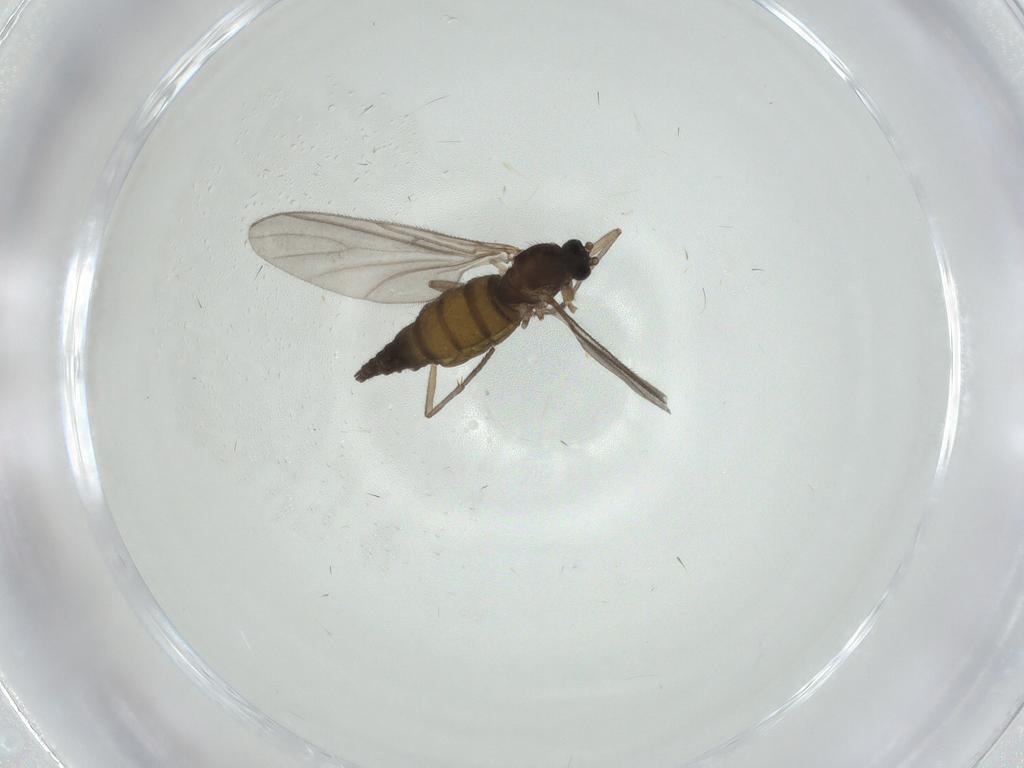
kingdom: Animalia
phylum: Arthropoda
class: Insecta
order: Diptera
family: Sciaridae
